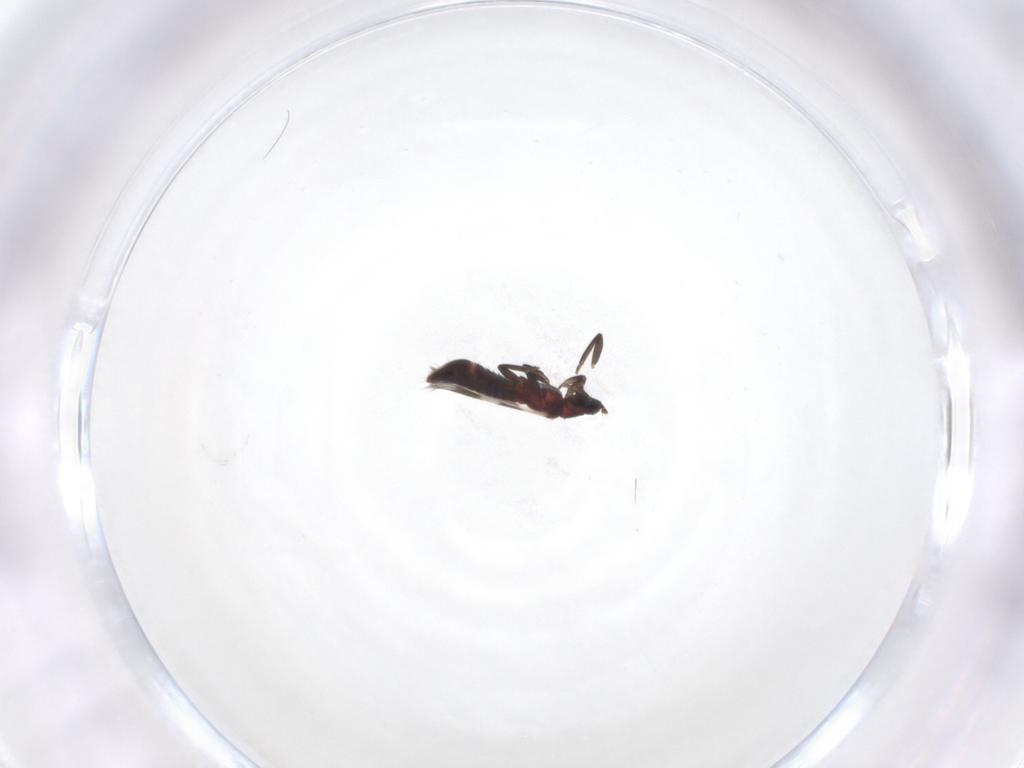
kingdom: Animalia
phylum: Arthropoda
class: Insecta
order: Thysanoptera
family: Aeolothripidae
